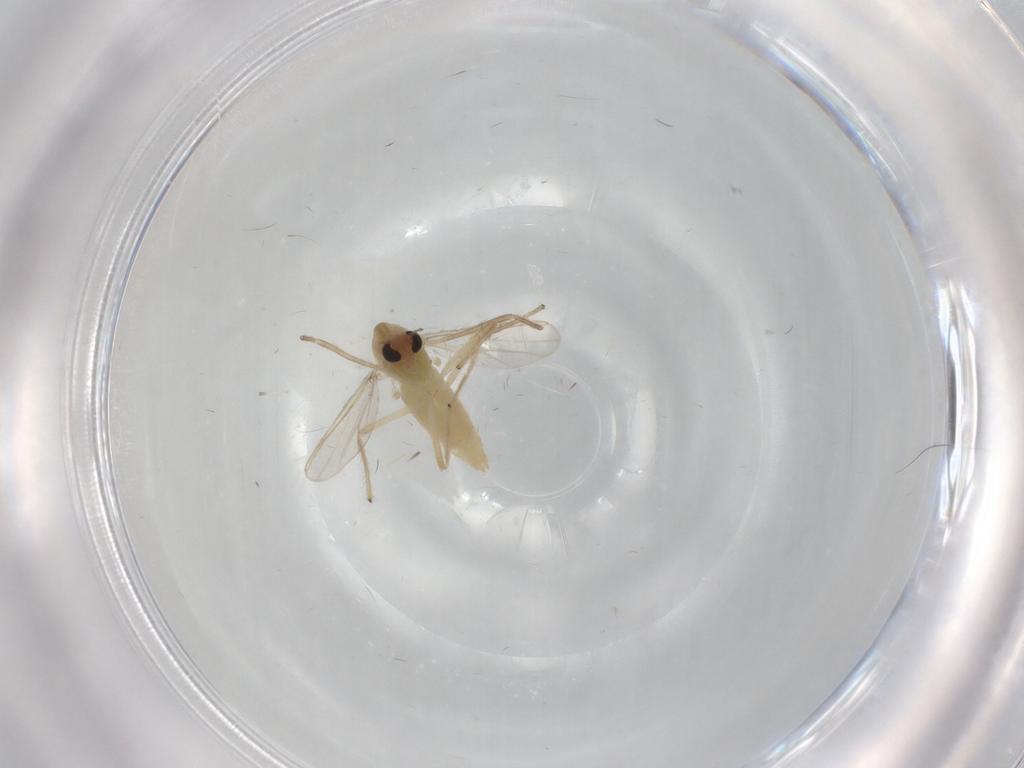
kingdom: Animalia
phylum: Arthropoda
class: Insecta
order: Diptera
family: Chironomidae
